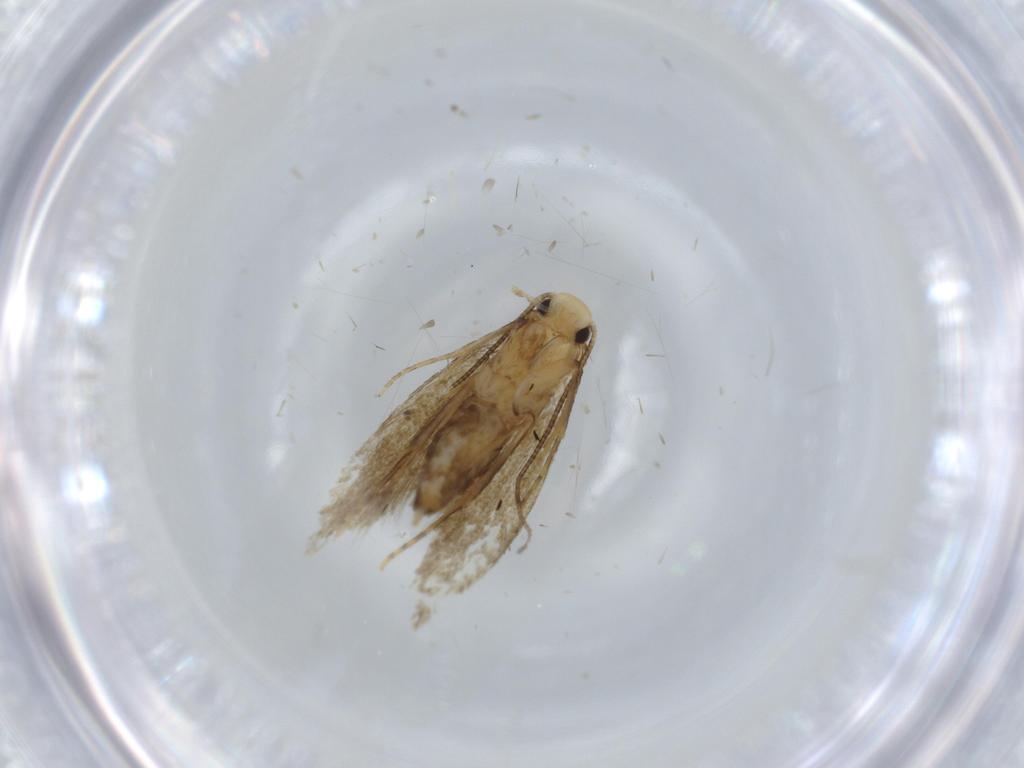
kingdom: Animalia
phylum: Arthropoda
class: Insecta
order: Lepidoptera
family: Tineidae
